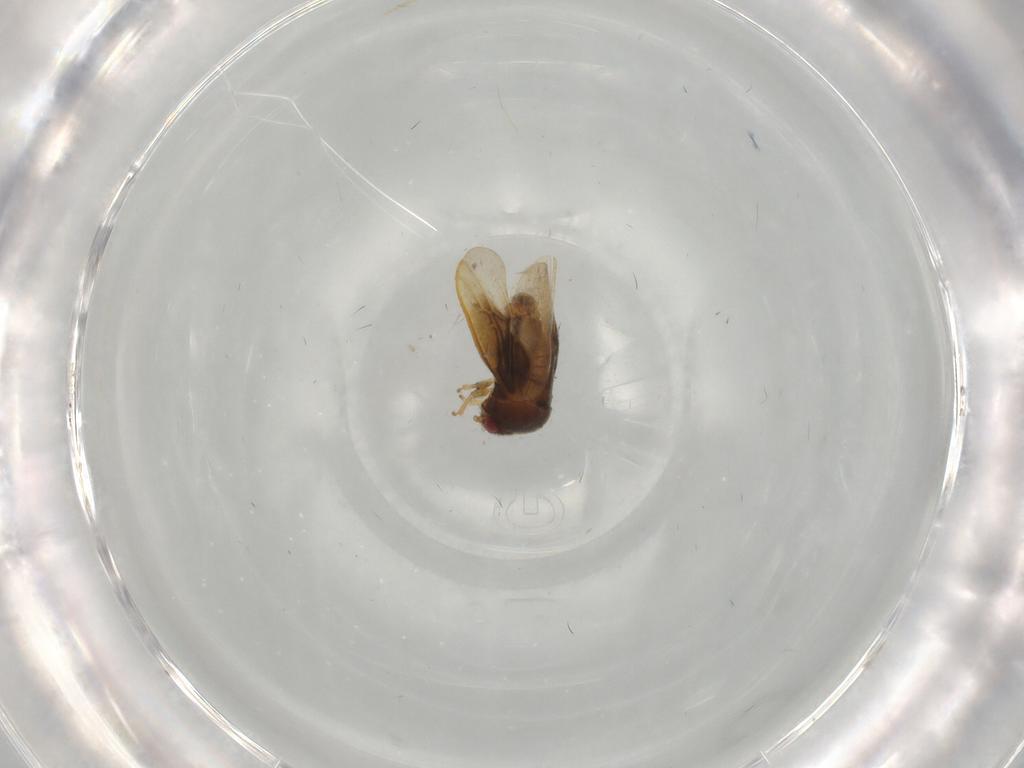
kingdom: Animalia
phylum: Arthropoda
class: Insecta
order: Hemiptera
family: Schizopteridae
